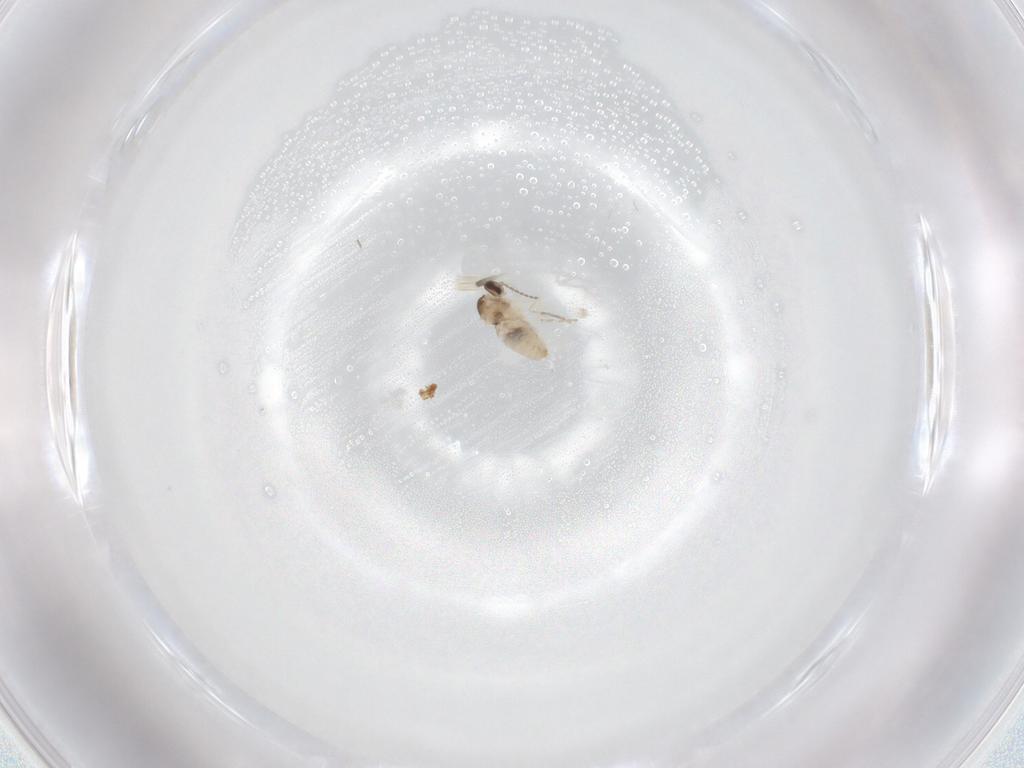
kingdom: Animalia
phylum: Arthropoda
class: Insecta
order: Diptera
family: Cecidomyiidae
